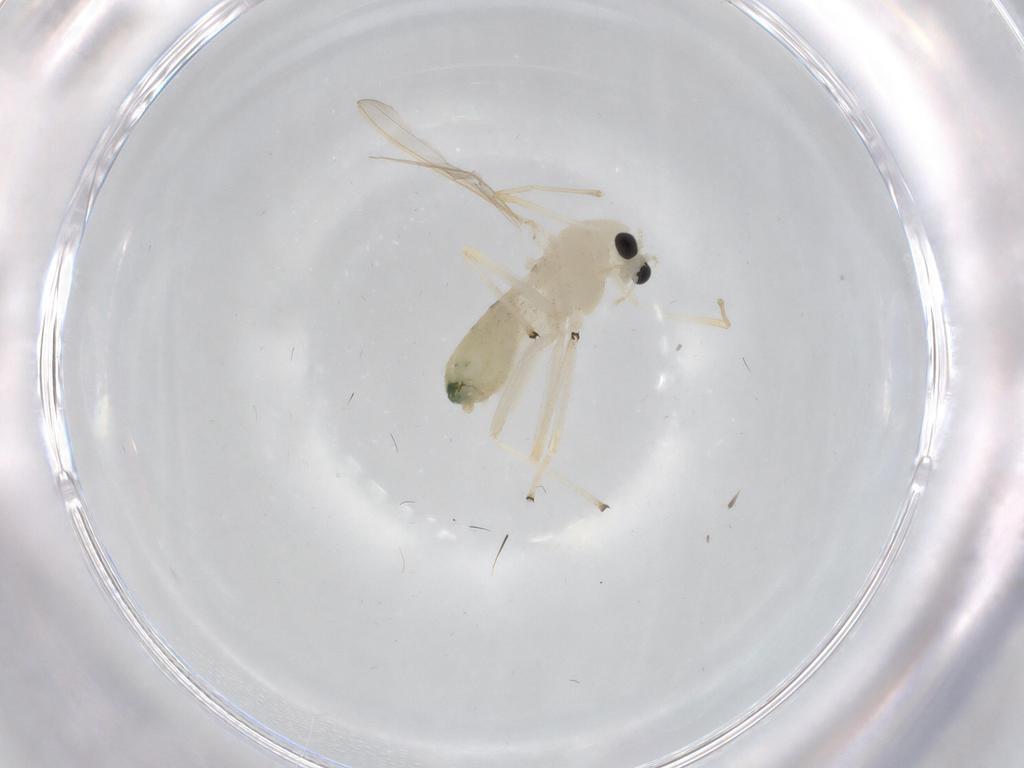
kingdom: Animalia
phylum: Arthropoda
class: Insecta
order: Diptera
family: Chironomidae
